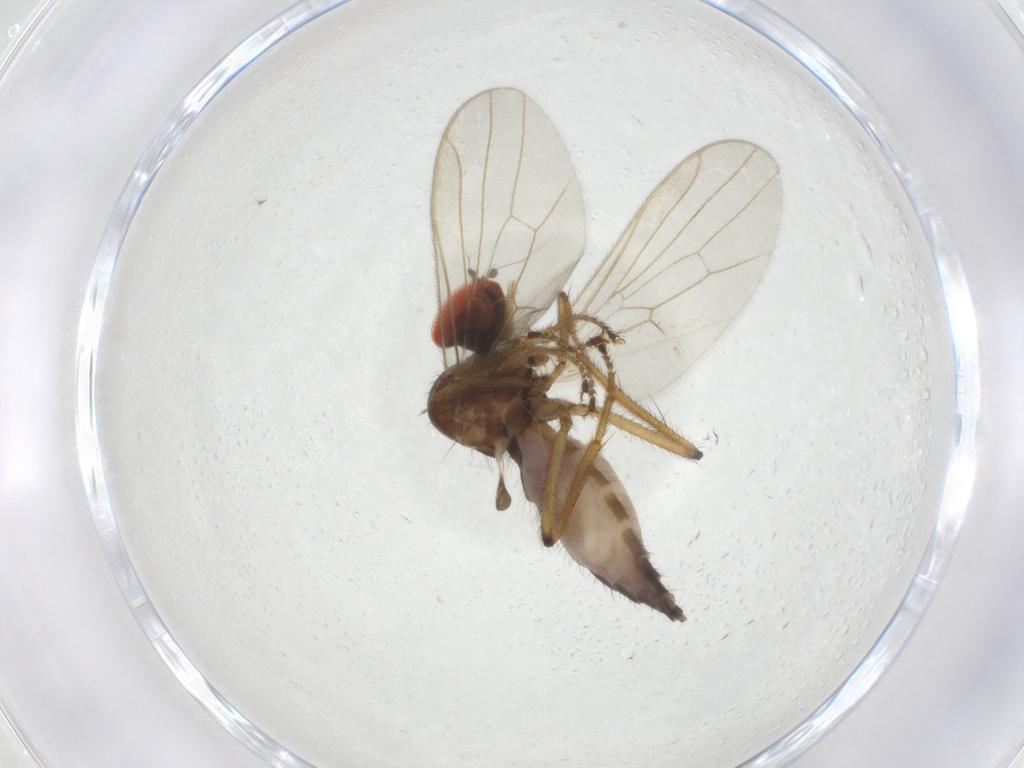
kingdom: Animalia
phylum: Arthropoda
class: Insecta
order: Diptera
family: Hybotidae
